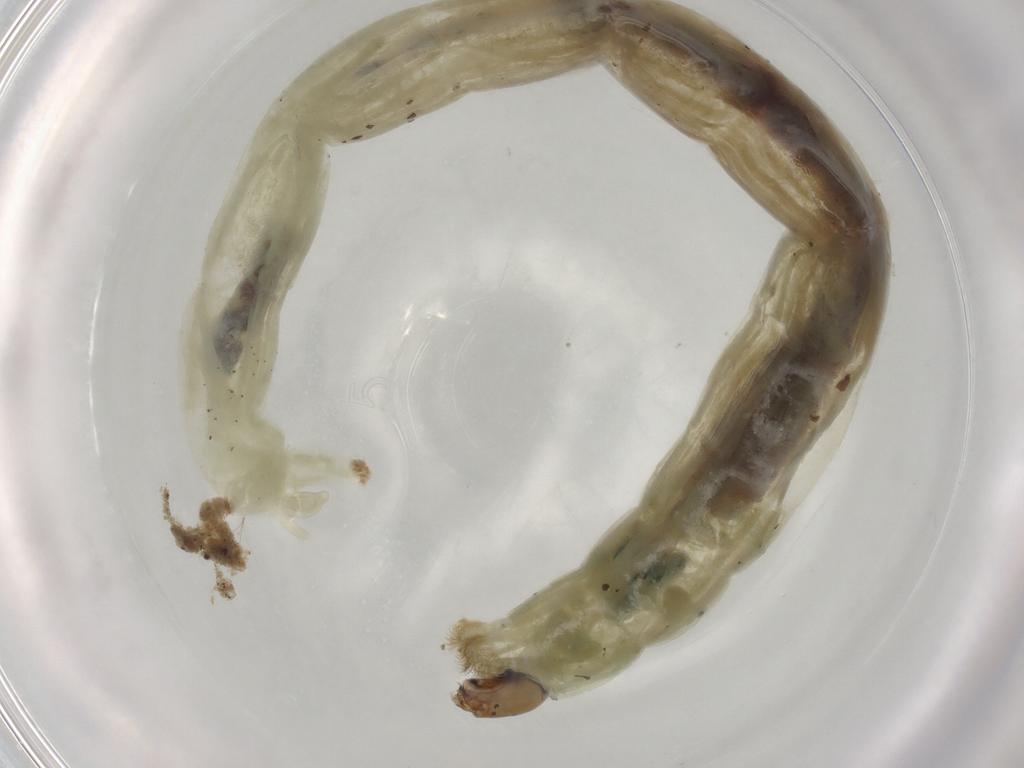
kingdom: Animalia
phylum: Arthropoda
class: Insecta
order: Diptera
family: Chironomidae
